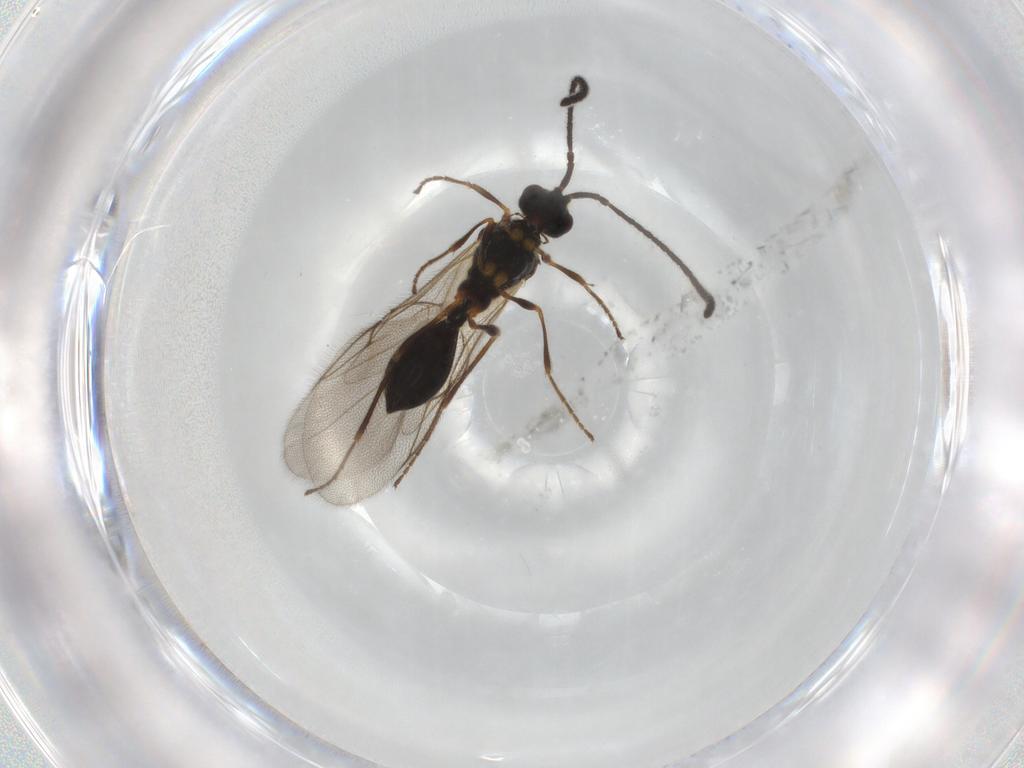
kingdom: Animalia
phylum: Arthropoda
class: Insecta
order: Hymenoptera
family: Diapriidae
